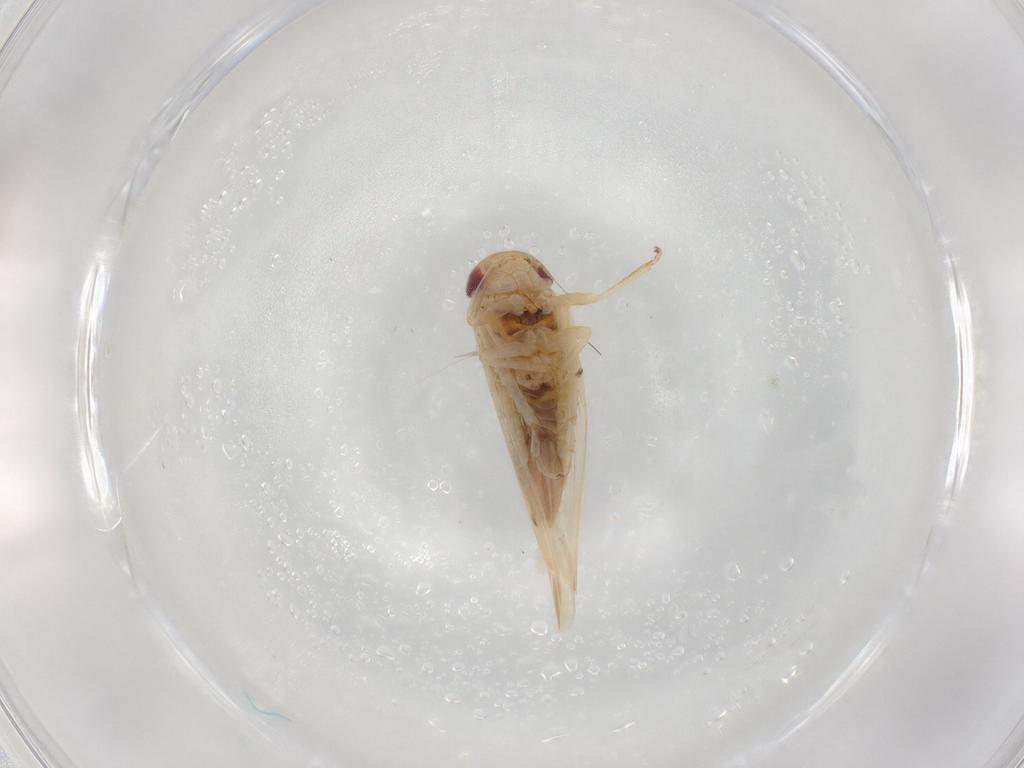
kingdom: Animalia
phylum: Arthropoda
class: Insecta
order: Hemiptera
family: Cicadellidae
